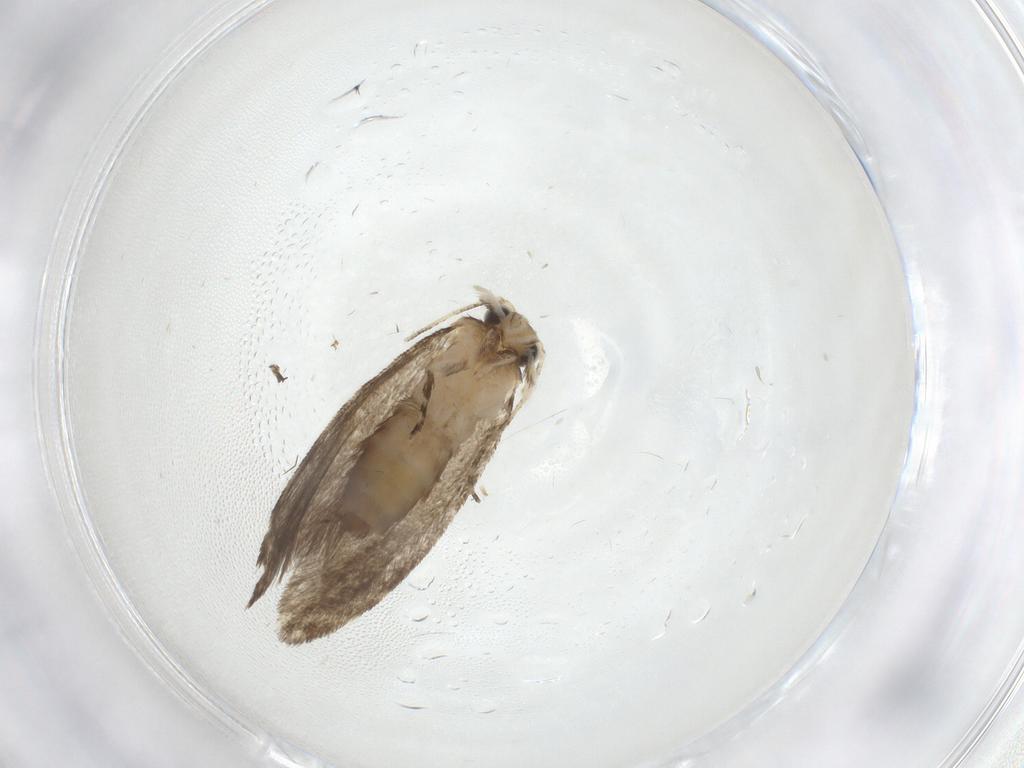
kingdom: Animalia
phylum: Arthropoda
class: Insecta
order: Lepidoptera
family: Tineidae
